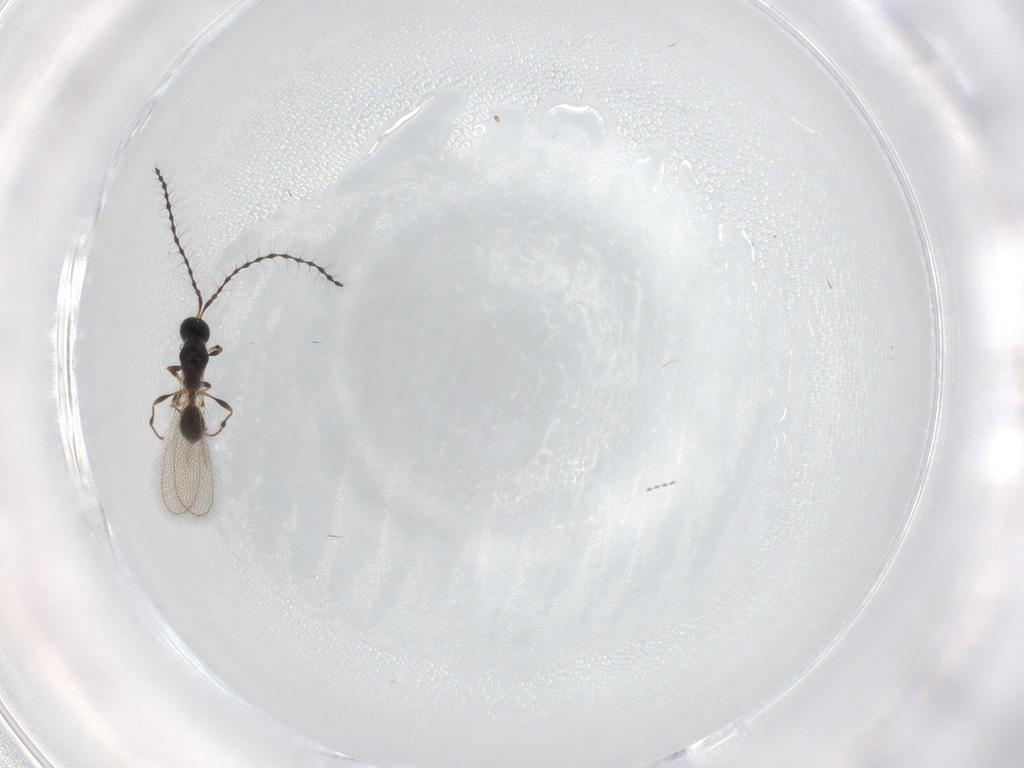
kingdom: Animalia
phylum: Arthropoda
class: Insecta
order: Hymenoptera
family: Diapriidae
